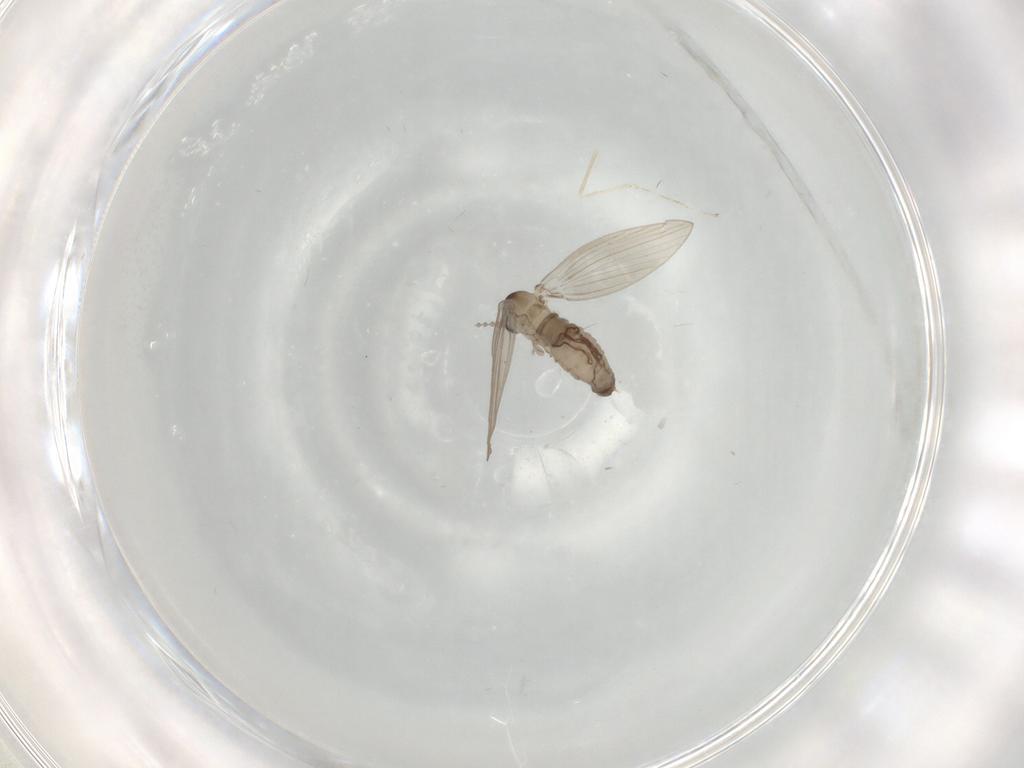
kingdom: Animalia
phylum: Arthropoda
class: Insecta
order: Diptera
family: Psychodidae
